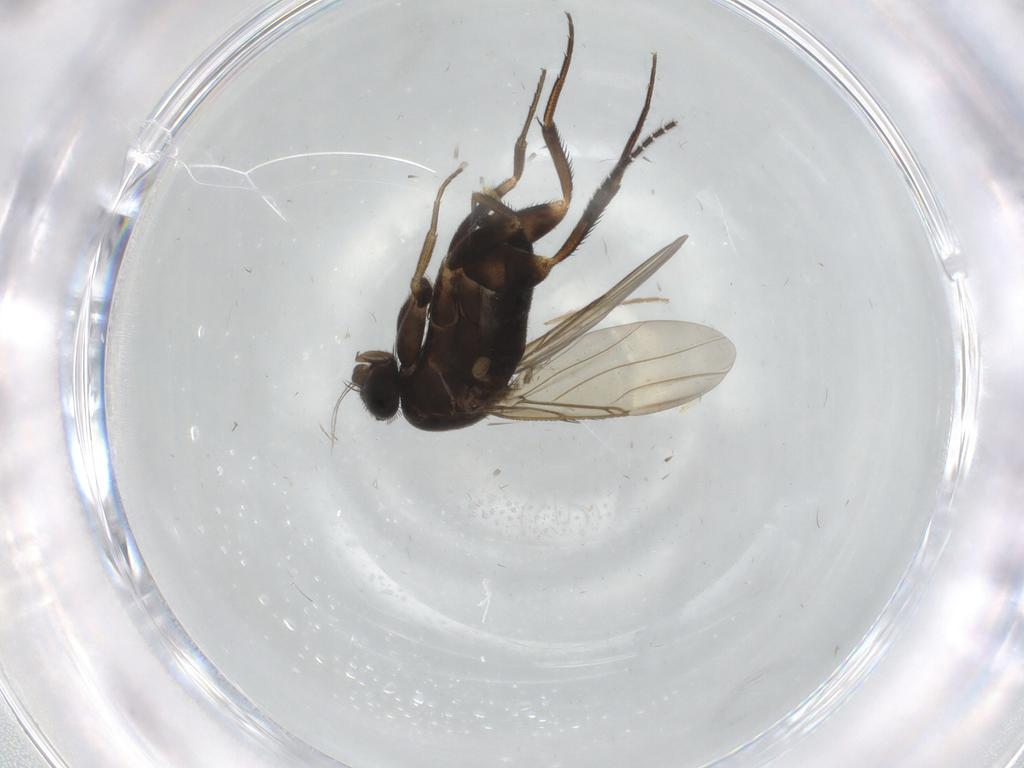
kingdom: Animalia
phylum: Arthropoda
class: Insecta
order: Diptera
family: Phoridae
